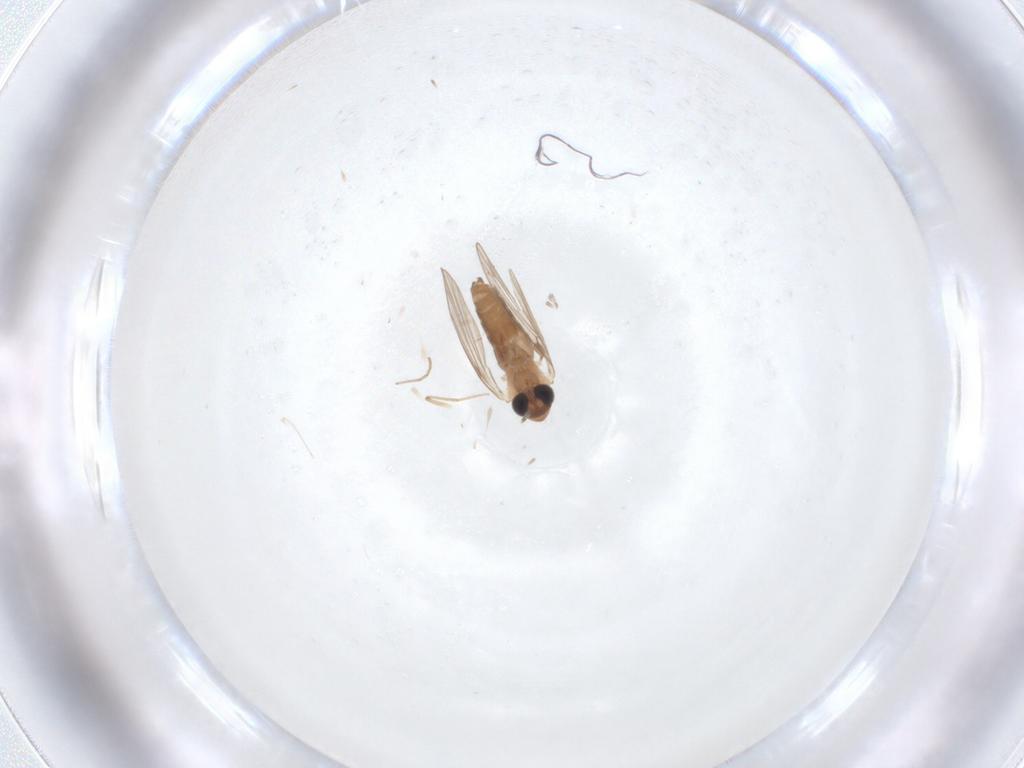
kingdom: Animalia
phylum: Arthropoda
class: Insecta
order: Diptera
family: Cecidomyiidae
